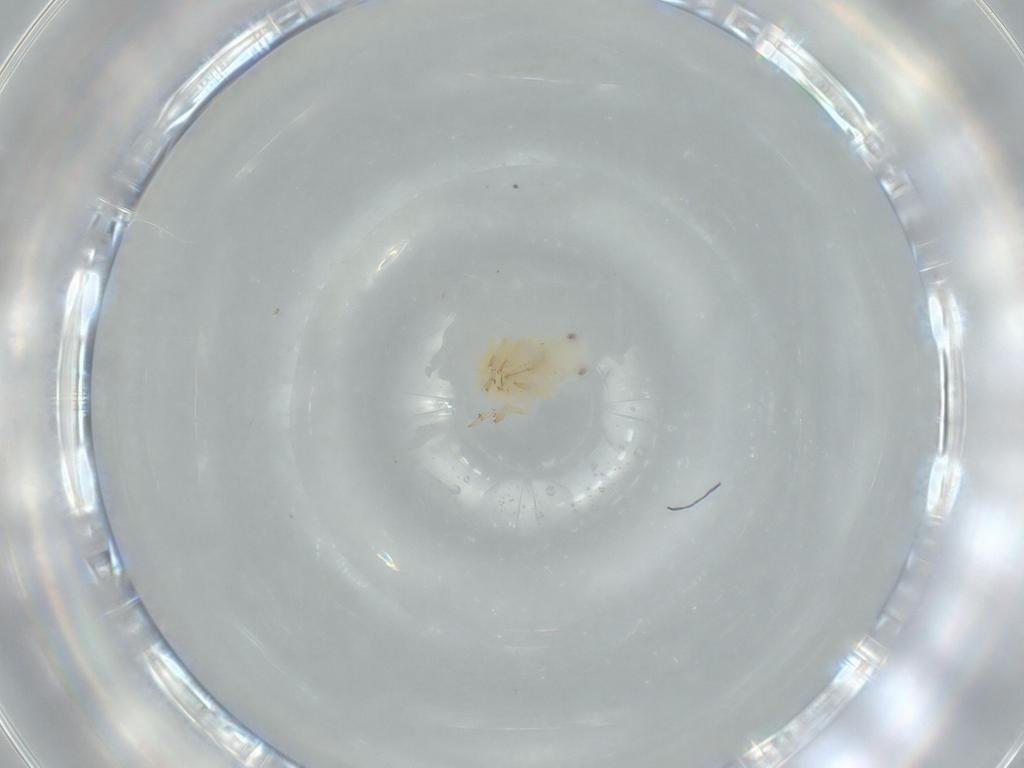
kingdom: Animalia
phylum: Arthropoda
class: Insecta
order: Hemiptera
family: Flatidae
